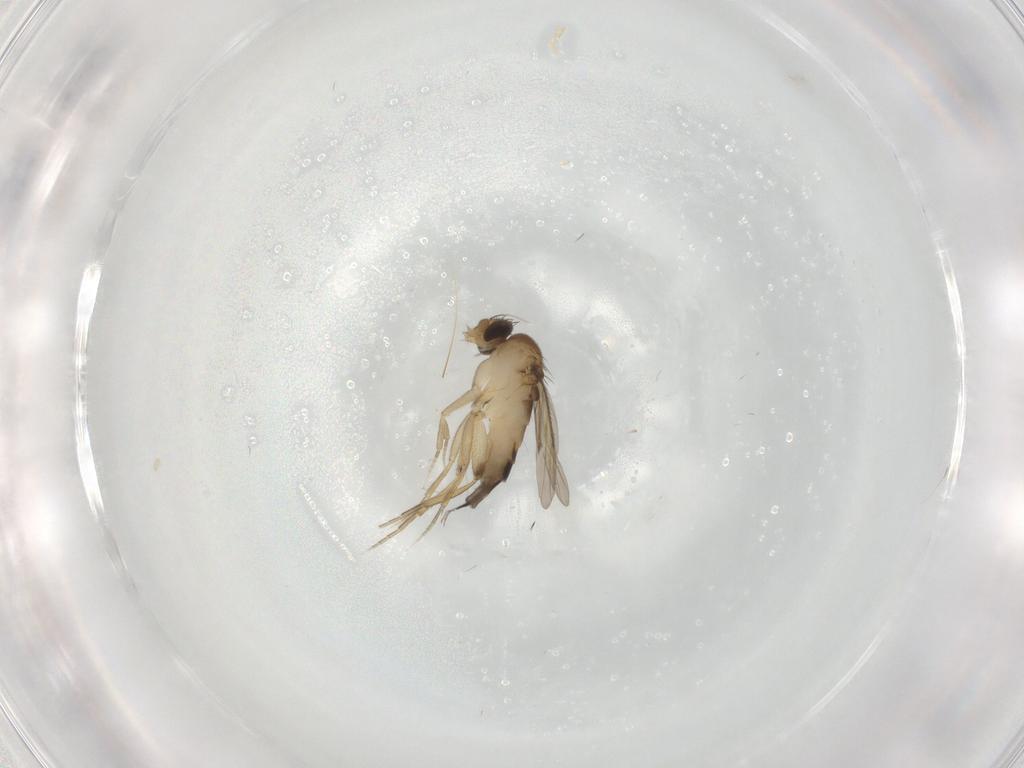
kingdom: Animalia
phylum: Arthropoda
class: Insecta
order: Diptera
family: Phoridae
